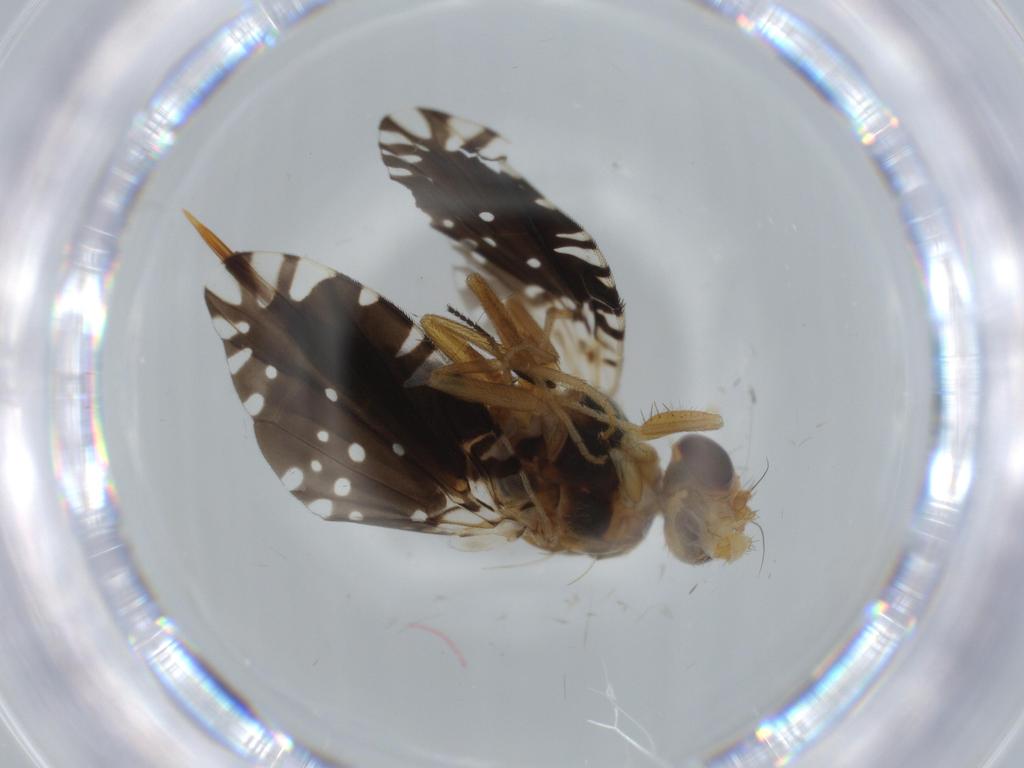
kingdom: Animalia
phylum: Arthropoda
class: Insecta
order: Diptera
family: Tephritidae
